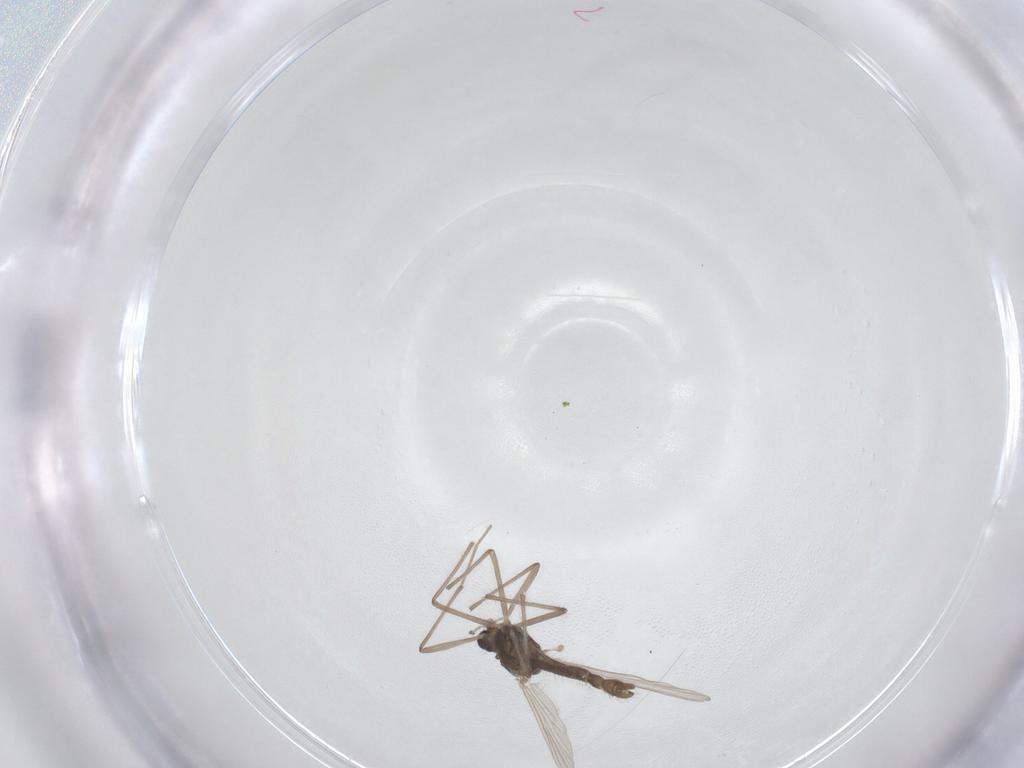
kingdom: Animalia
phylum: Arthropoda
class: Insecta
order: Diptera
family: Chironomidae
